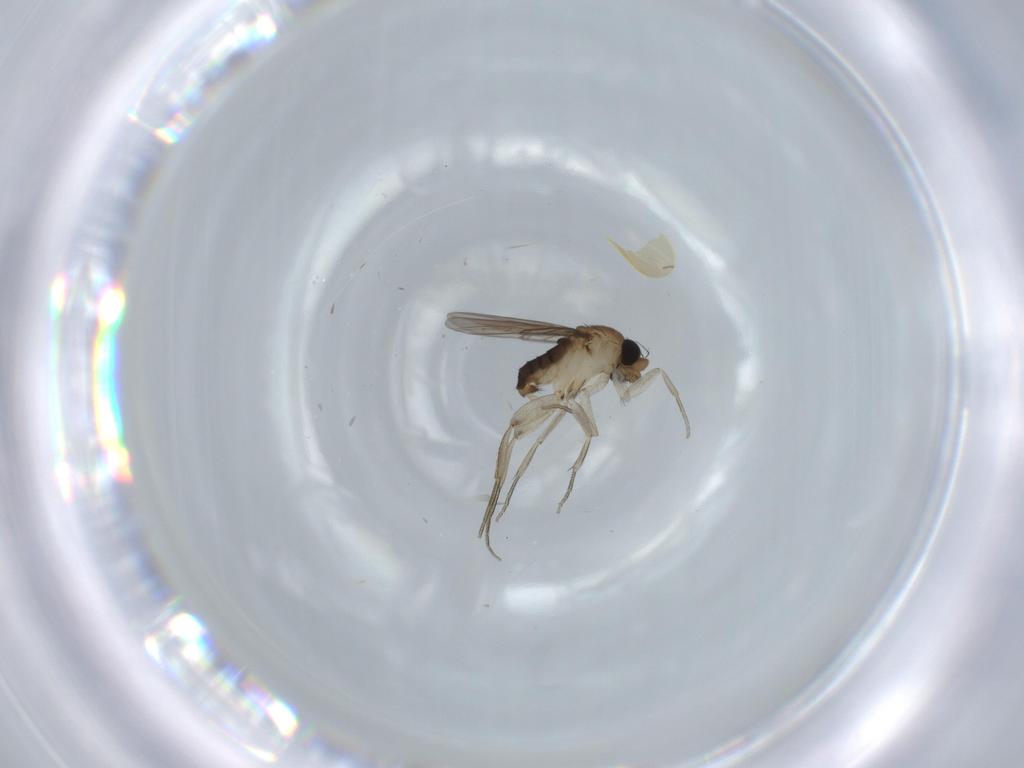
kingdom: Animalia
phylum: Arthropoda
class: Insecta
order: Diptera
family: Phoridae
